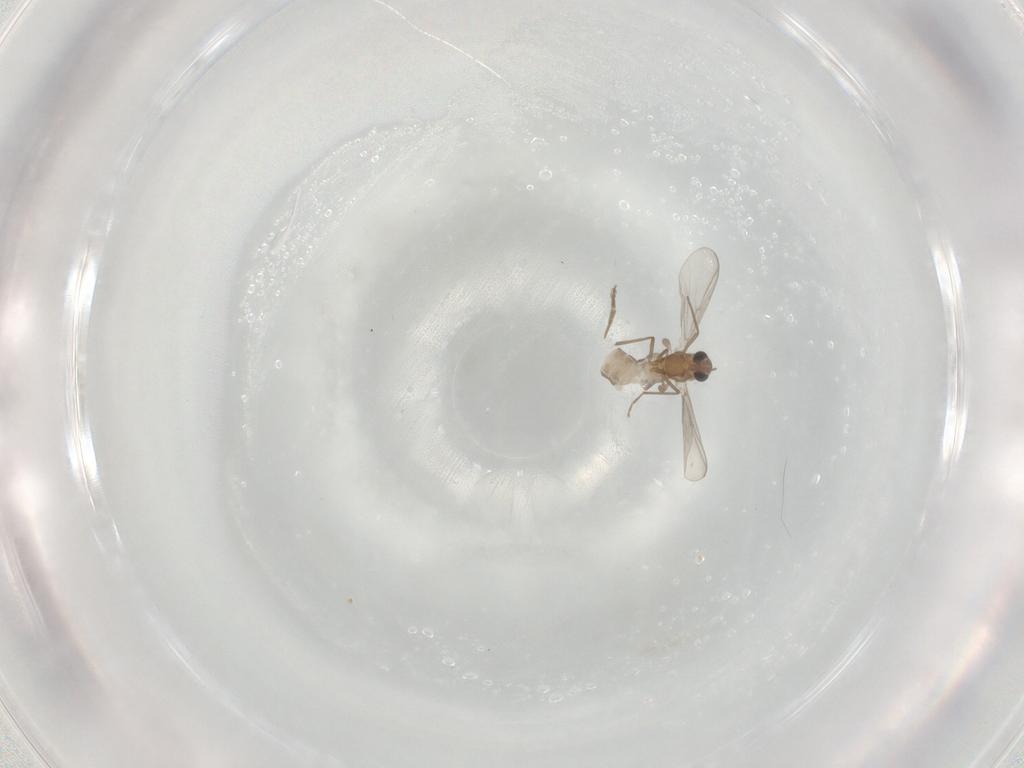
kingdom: Animalia
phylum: Arthropoda
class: Insecta
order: Diptera
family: Chironomidae
